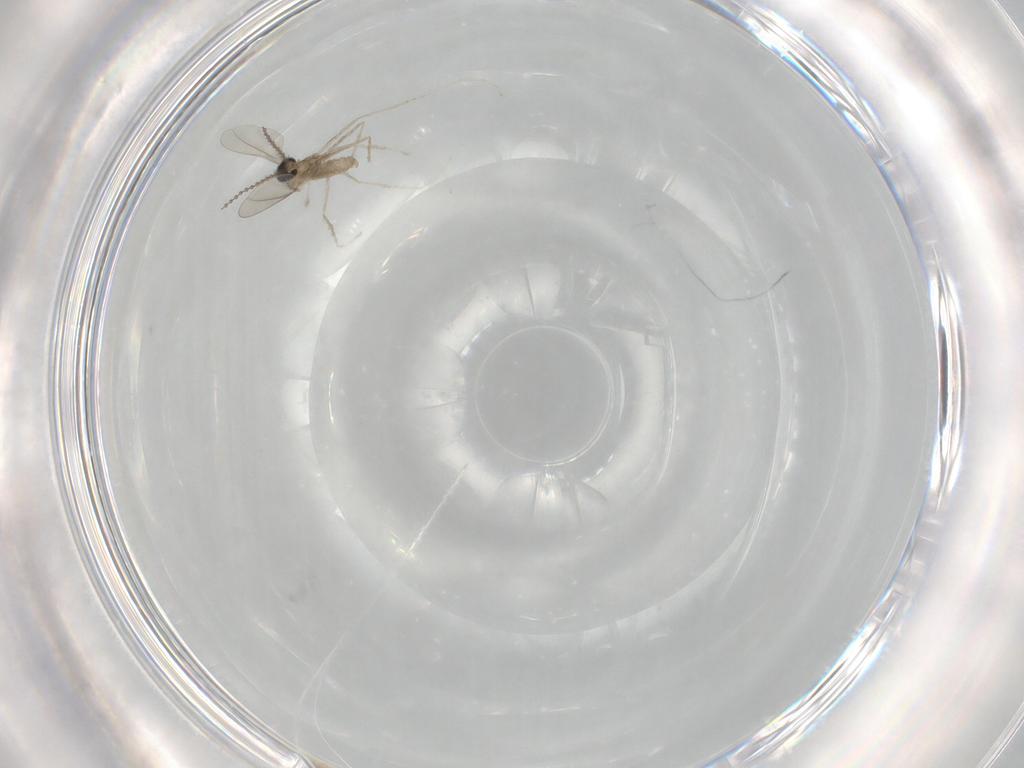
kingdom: Animalia
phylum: Arthropoda
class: Insecta
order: Diptera
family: Cecidomyiidae
